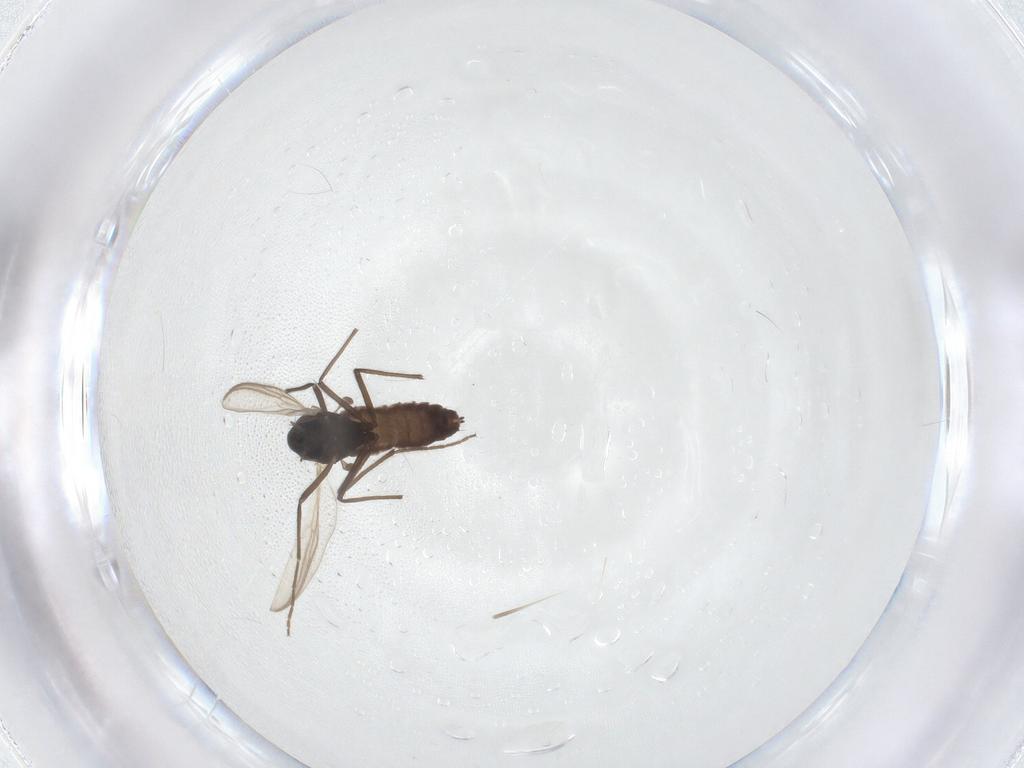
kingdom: Animalia
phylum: Arthropoda
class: Insecta
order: Diptera
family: Chironomidae
